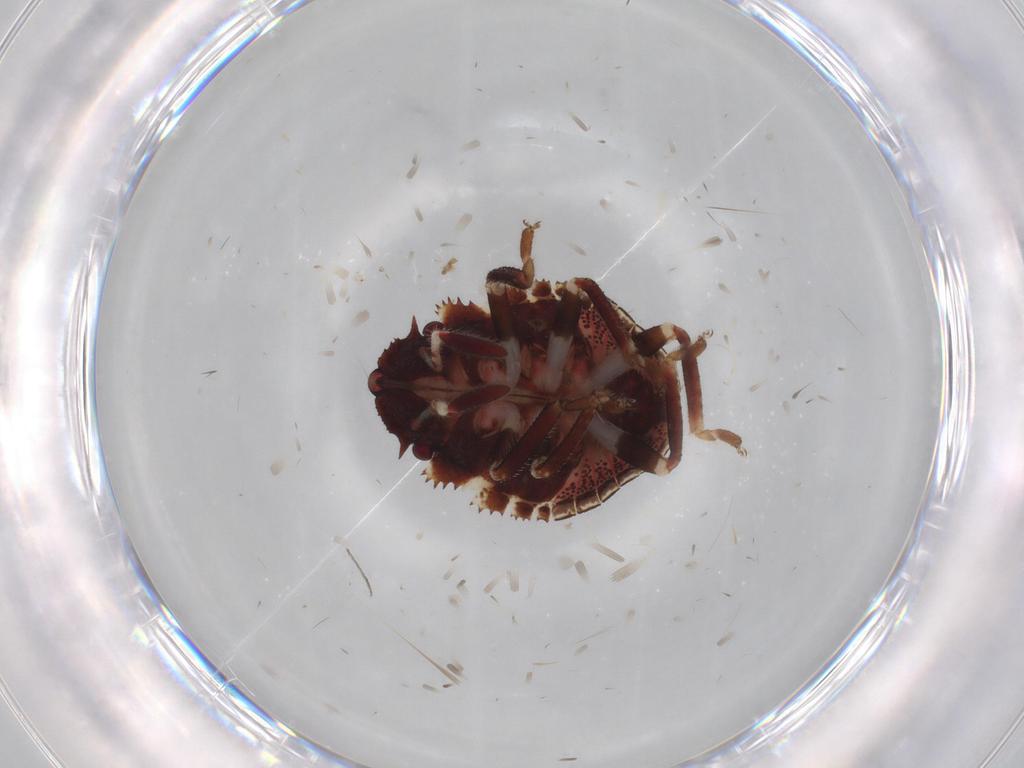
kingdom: Animalia
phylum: Arthropoda
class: Insecta
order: Hemiptera
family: Scutelleridae
